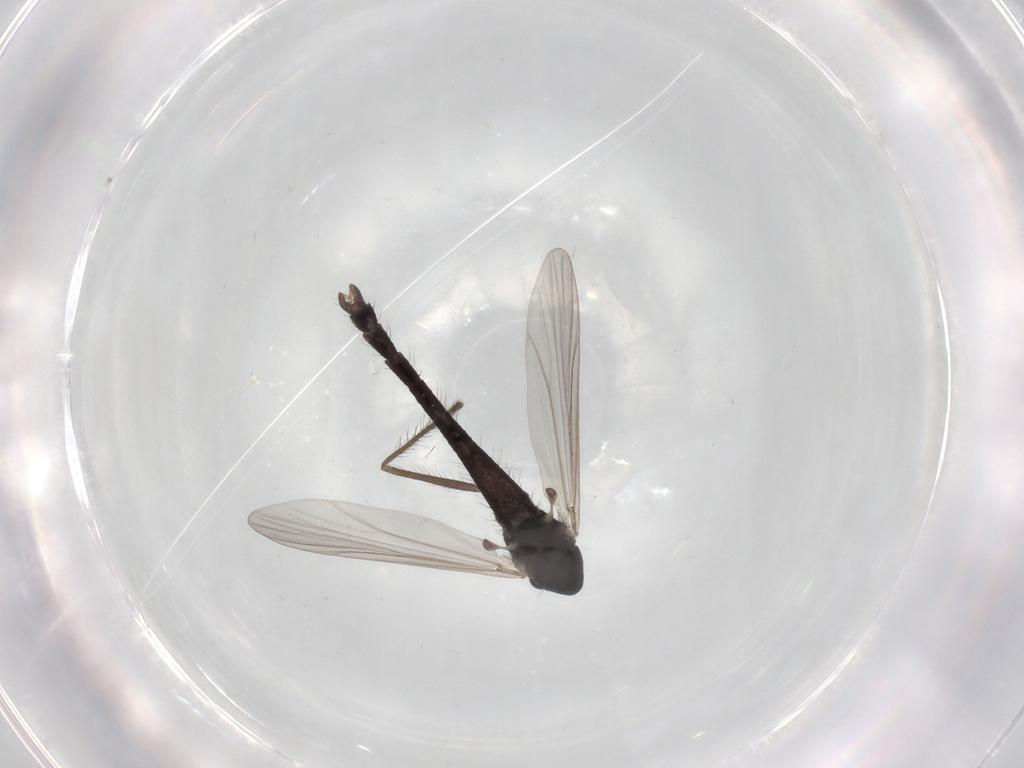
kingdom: Animalia
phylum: Arthropoda
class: Insecta
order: Diptera
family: Chironomidae
